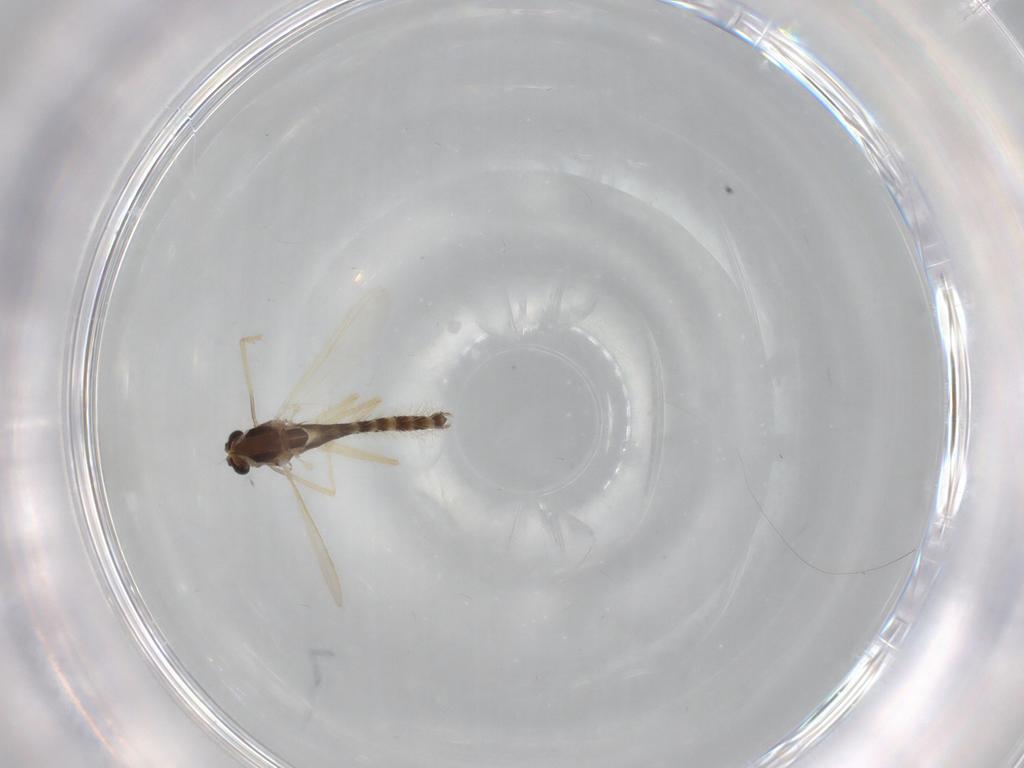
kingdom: Animalia
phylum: Arthropoda
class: Insecta
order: Diptera
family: Chironomidae
